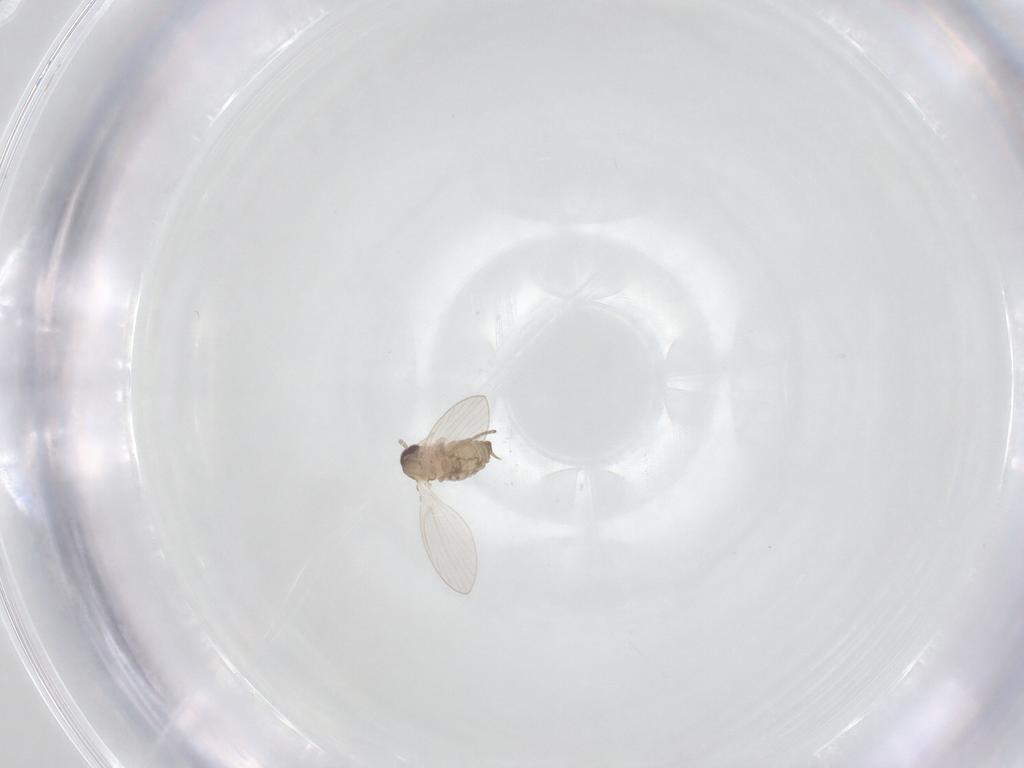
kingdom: Animalia
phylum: Arthropoda
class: Insecta
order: Diptera
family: Psychodidae
